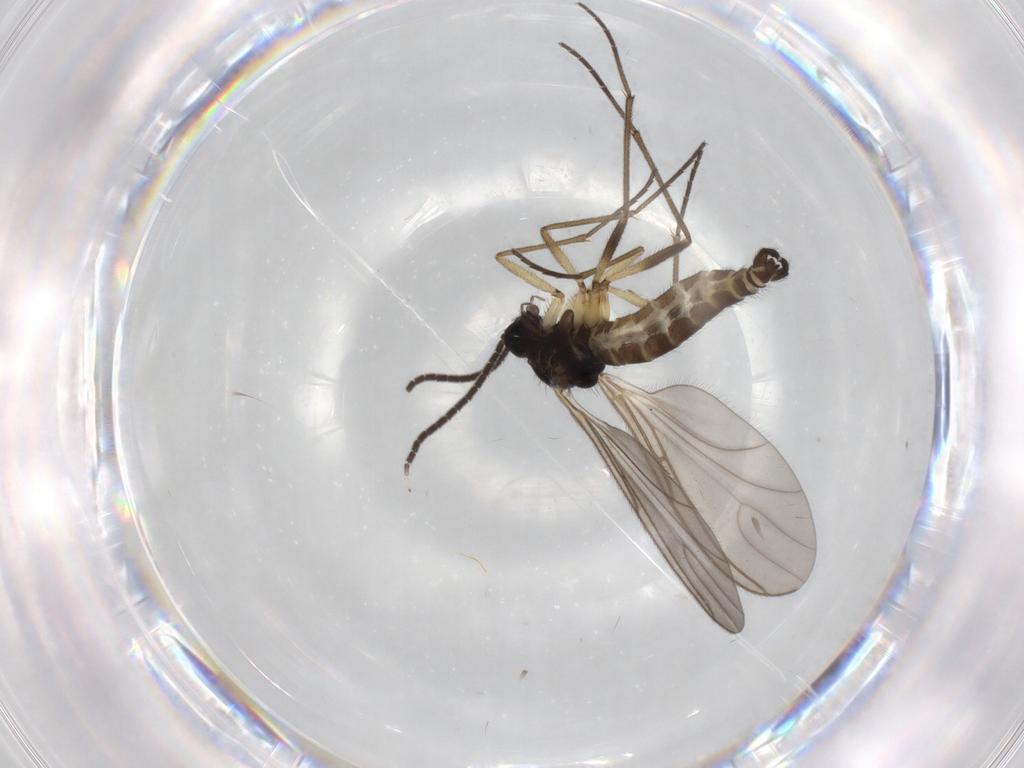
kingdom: Animalia
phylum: Arthropoda
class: Insecta
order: Diptera
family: Sciaridae
